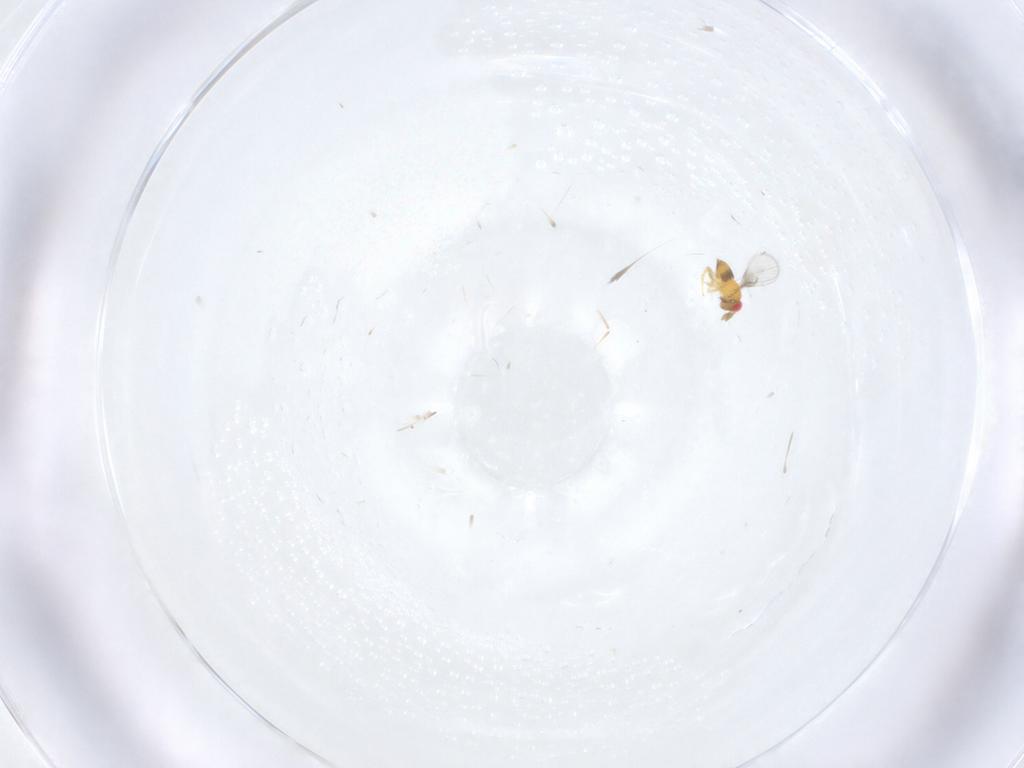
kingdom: Animalia
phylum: Arthropoda
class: Insecta
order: Hymenoptera
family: Trichogrammatidae
